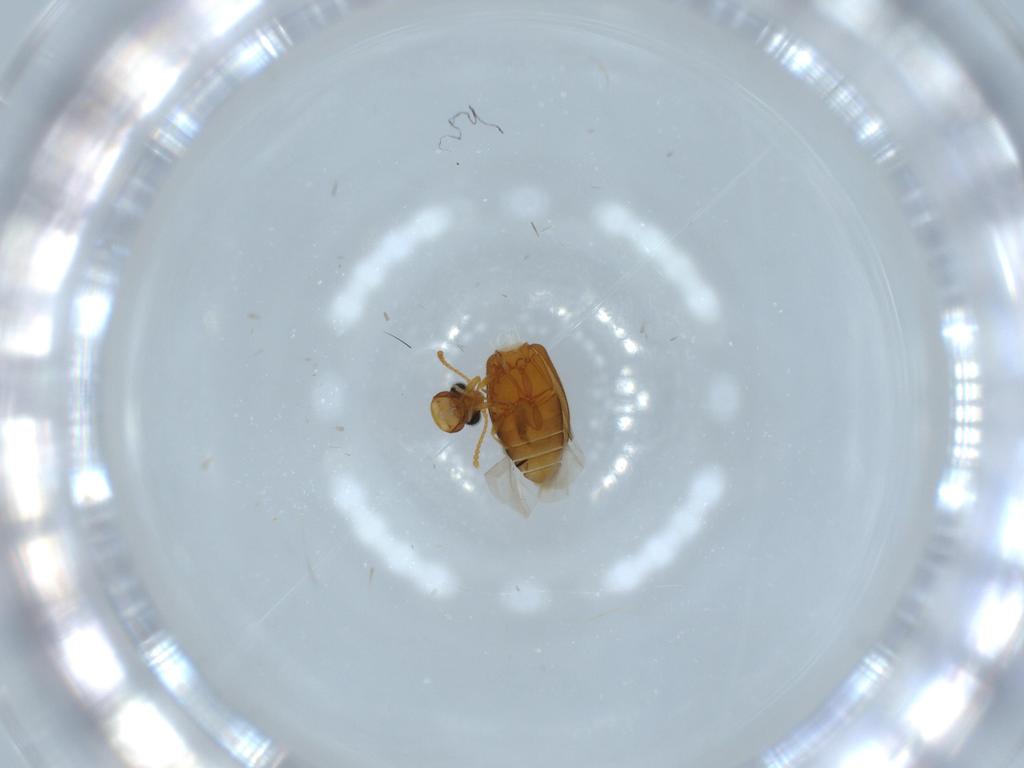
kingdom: Animalia
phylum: Arthropoda
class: Insecta
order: Coleoptera
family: Aderidae
